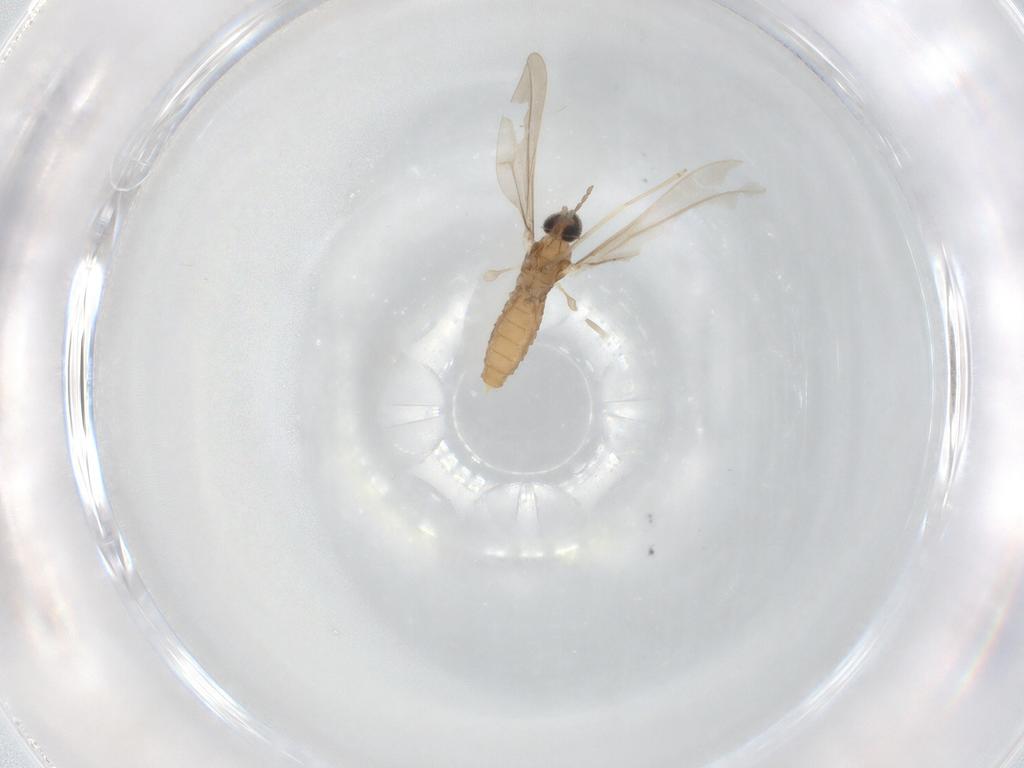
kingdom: Animalia
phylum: Arthropoda
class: Insecta
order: Diptera
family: Cecidomyiidae
